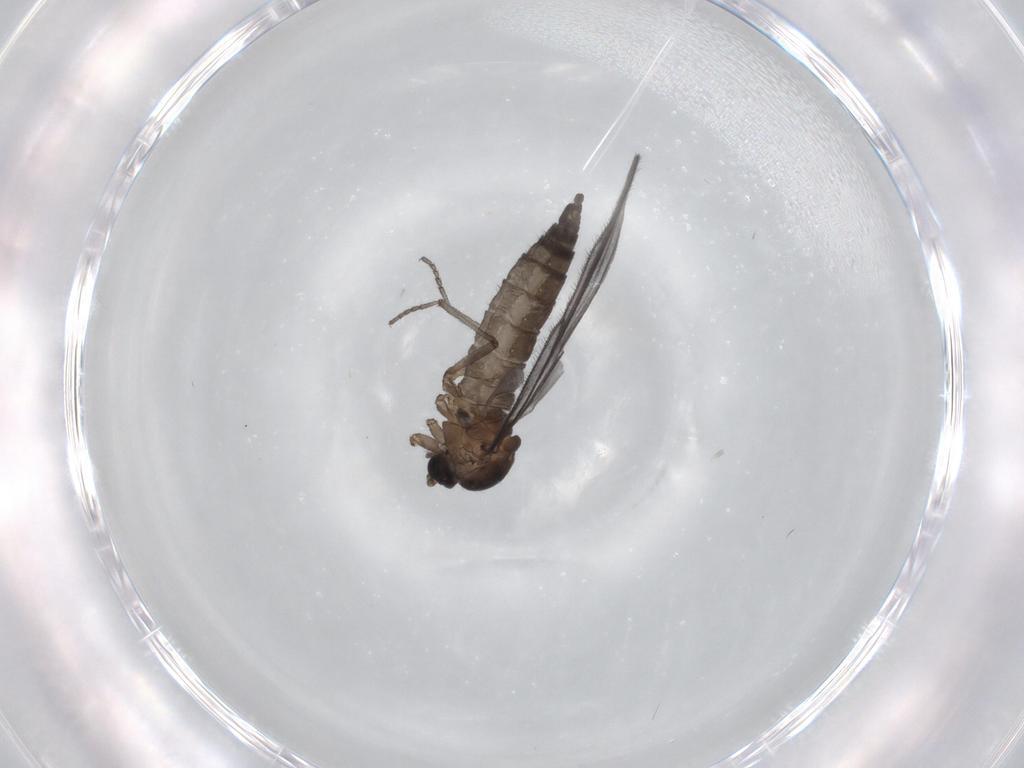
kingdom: Animalia
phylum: Arthropoda
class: Insecta
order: Diptera
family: Sciaridae
